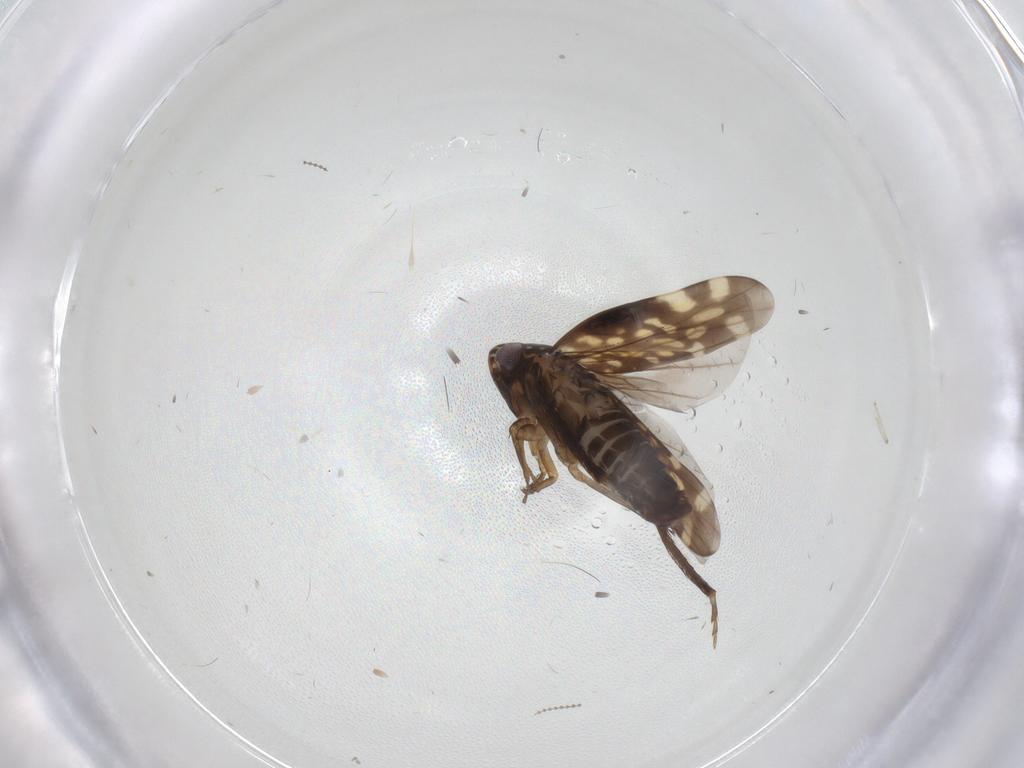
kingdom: Animalia
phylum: Arthropoda
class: Insecta
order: Hemiptera
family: Cicadellidae
